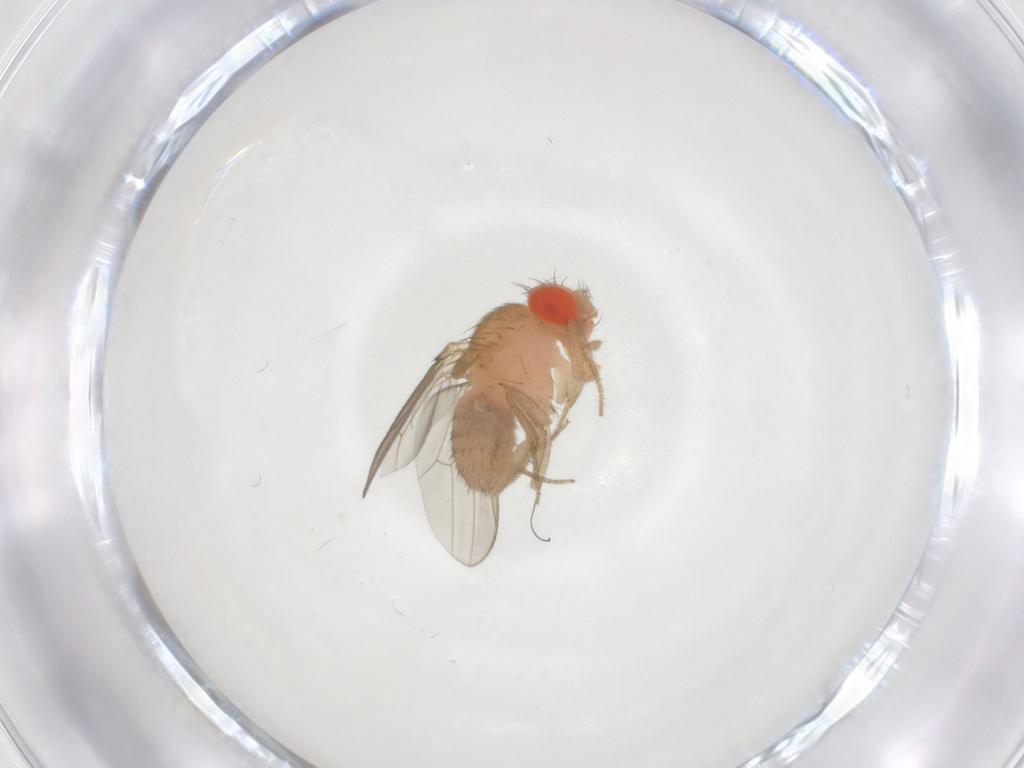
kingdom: Animalia
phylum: Arthropoda
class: Insecta
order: Diptera
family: Drosophilidae
